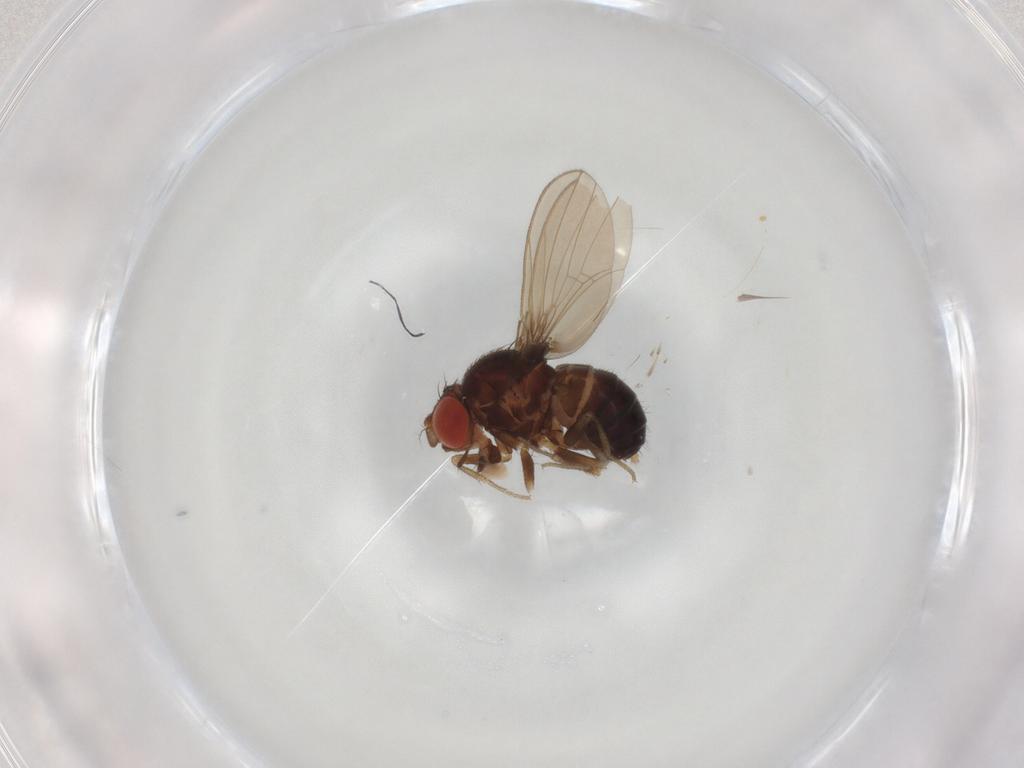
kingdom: Animalia
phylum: Arthropoda
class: Insecta
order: Diptera
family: Drosophilidae
